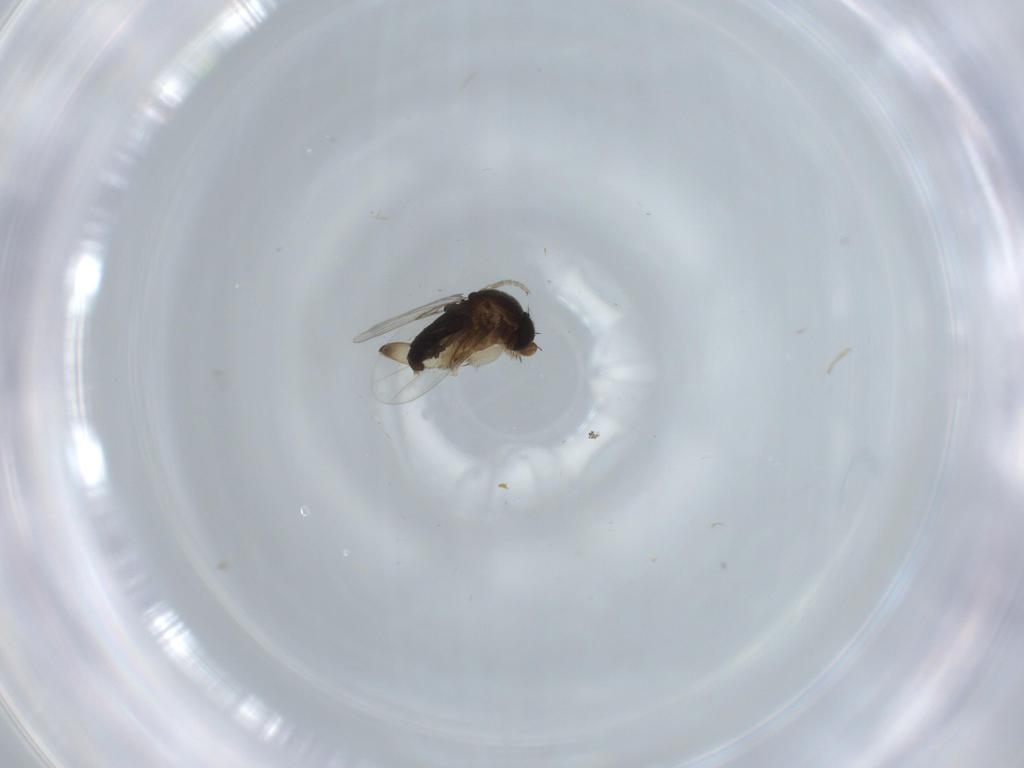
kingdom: Animalia
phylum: Arthropoda
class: Insecta
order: Diptera
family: Phoridae
